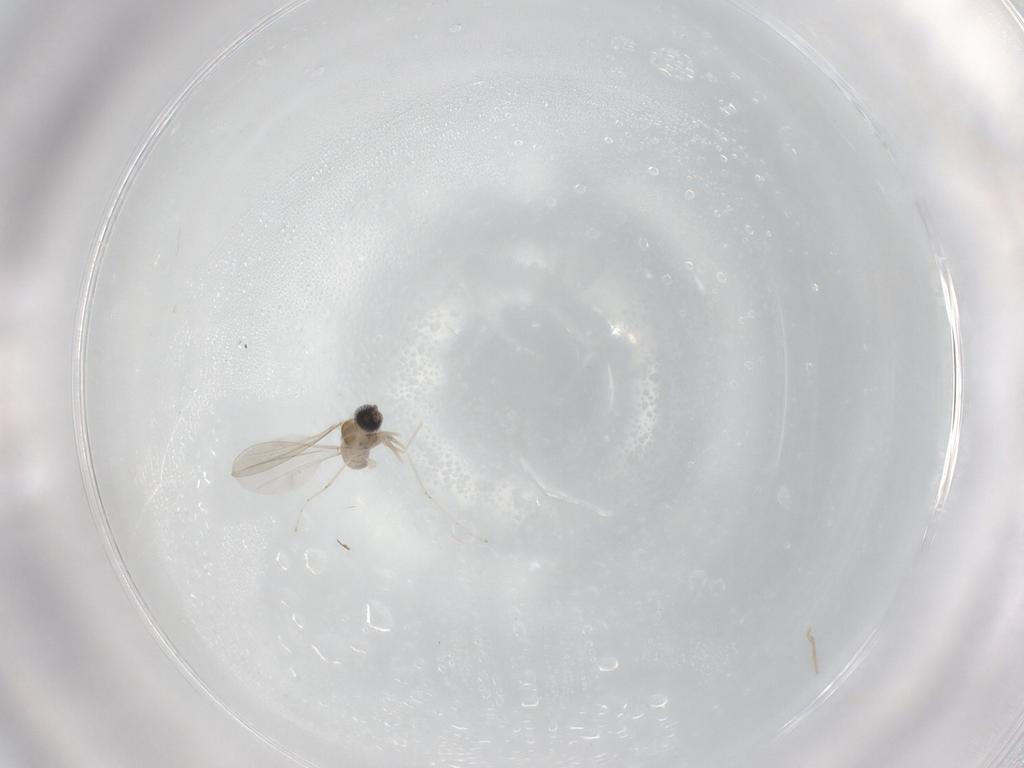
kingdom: Animalia
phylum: Arthropoda
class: Insecta
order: Diptera
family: Cecidomyiidae
